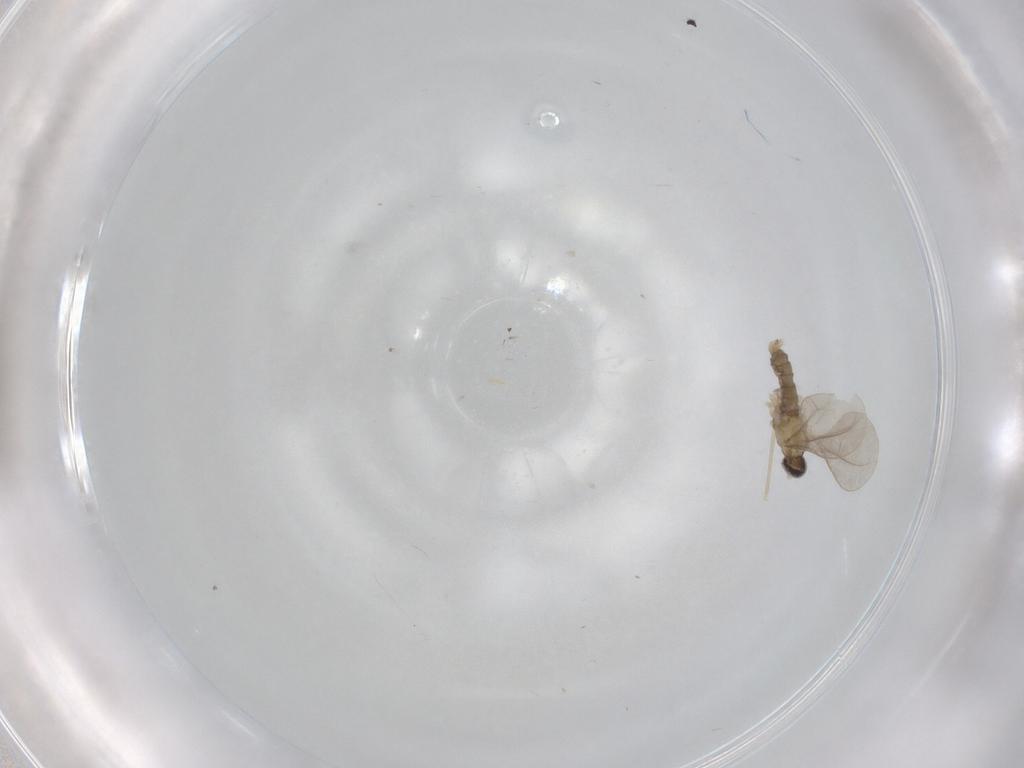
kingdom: Animalia
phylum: Arthropoda
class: Insecta
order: Diptera
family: Cecidomyiidae
